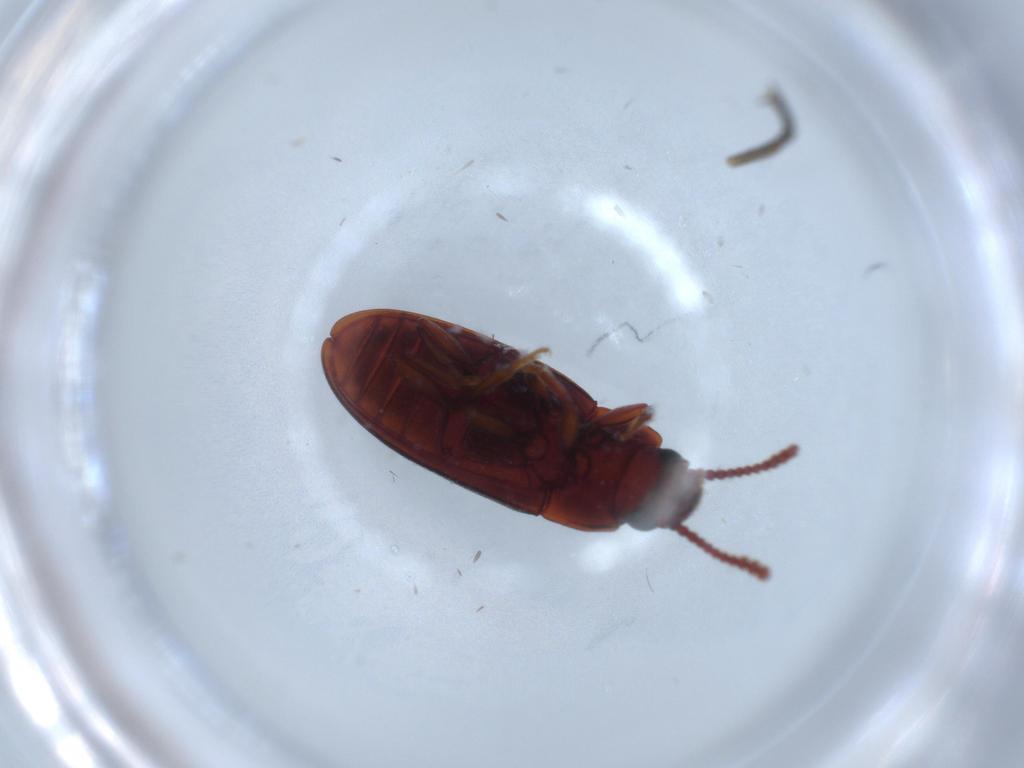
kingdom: Animalia
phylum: Arthropoda
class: Insecta
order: Coleoptera
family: Erotylidae
